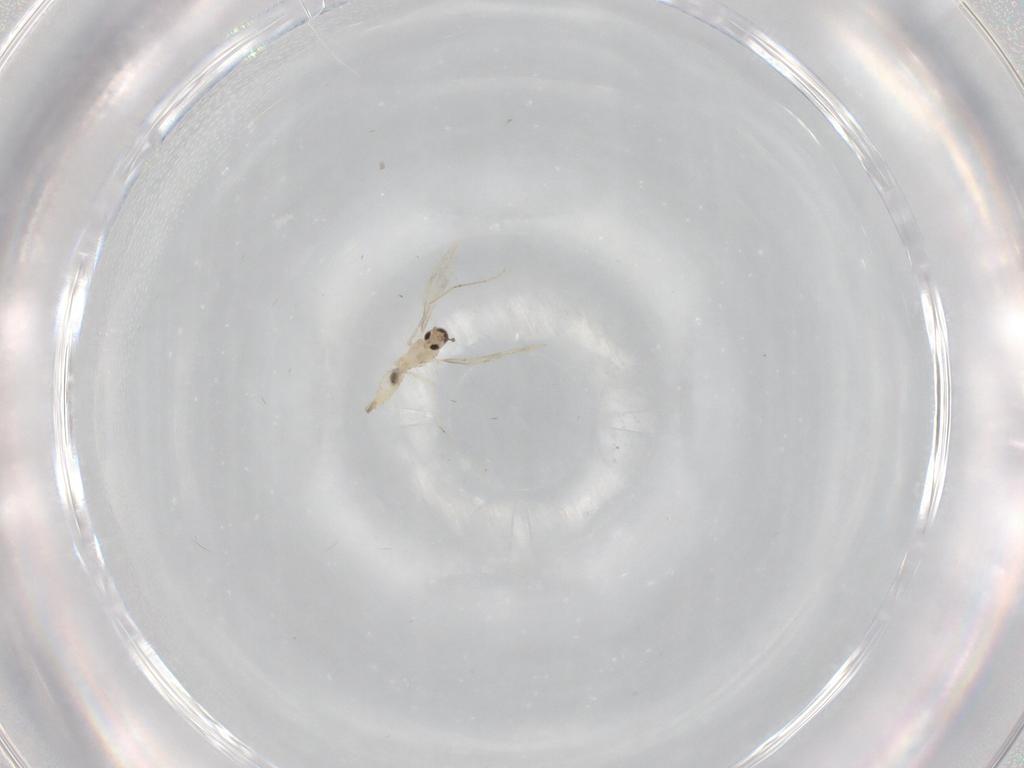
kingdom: Animalia
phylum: Arthropoda
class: Insecta
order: Diptera
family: Cecidomyiidae
